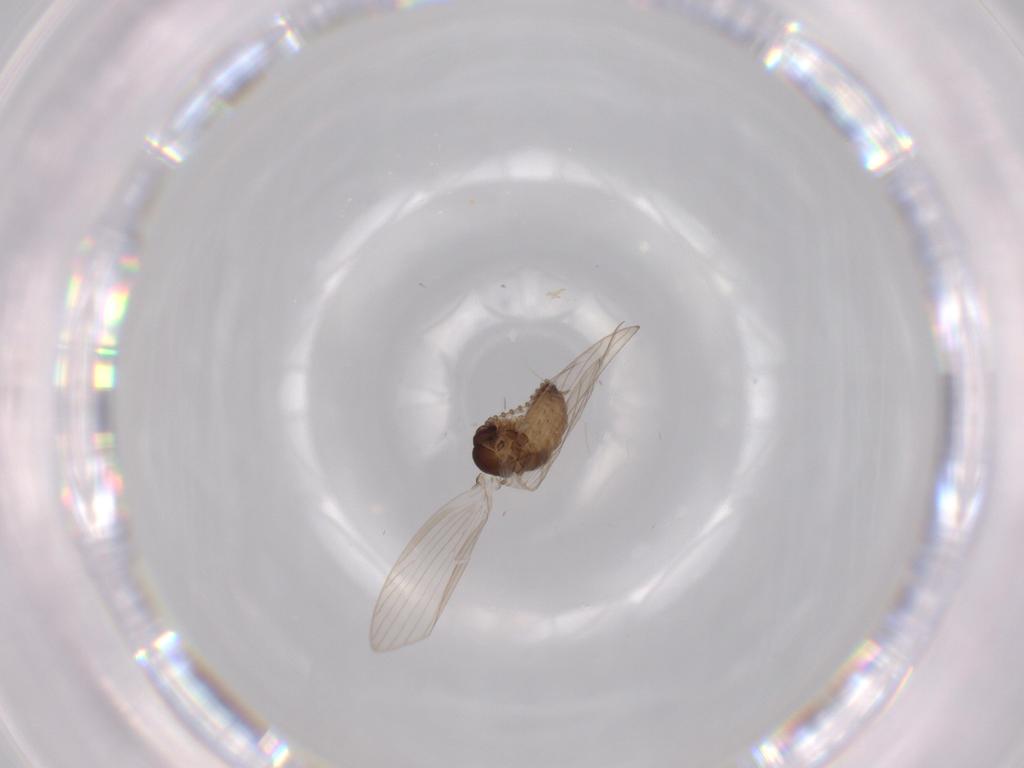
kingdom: Animalia
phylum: Arthropoda
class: Insecta
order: Diptera
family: Psychodidae
